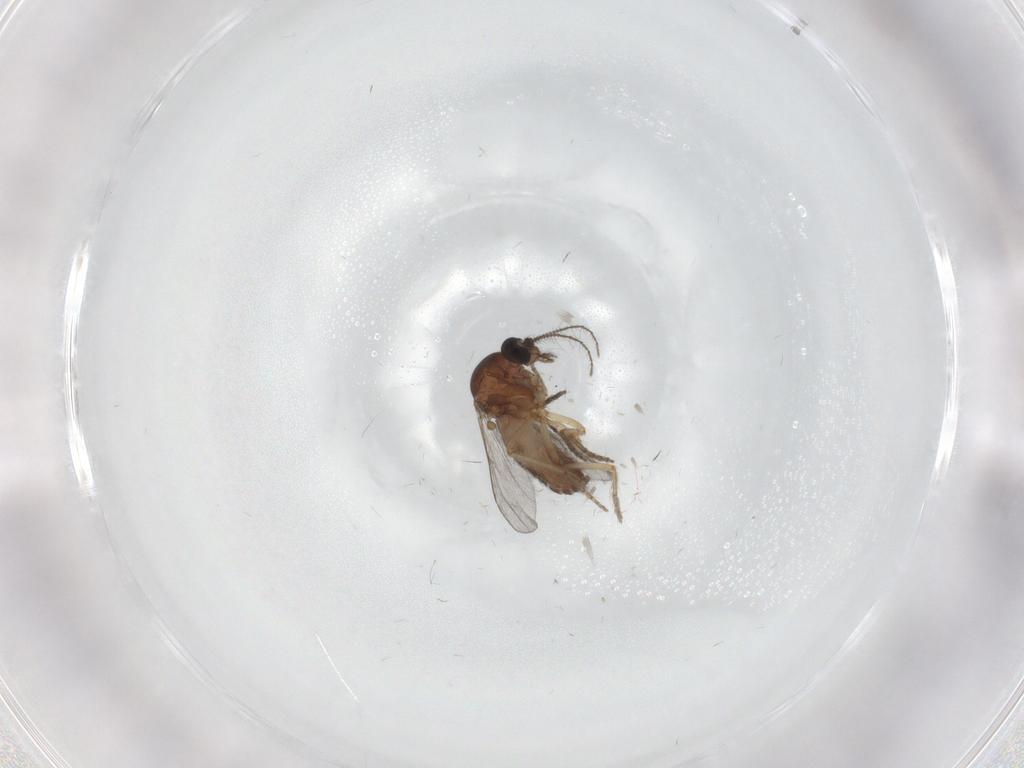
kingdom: Animalia
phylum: Arthropoda
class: Insecta
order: Diptera
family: Ceratopogonidae
